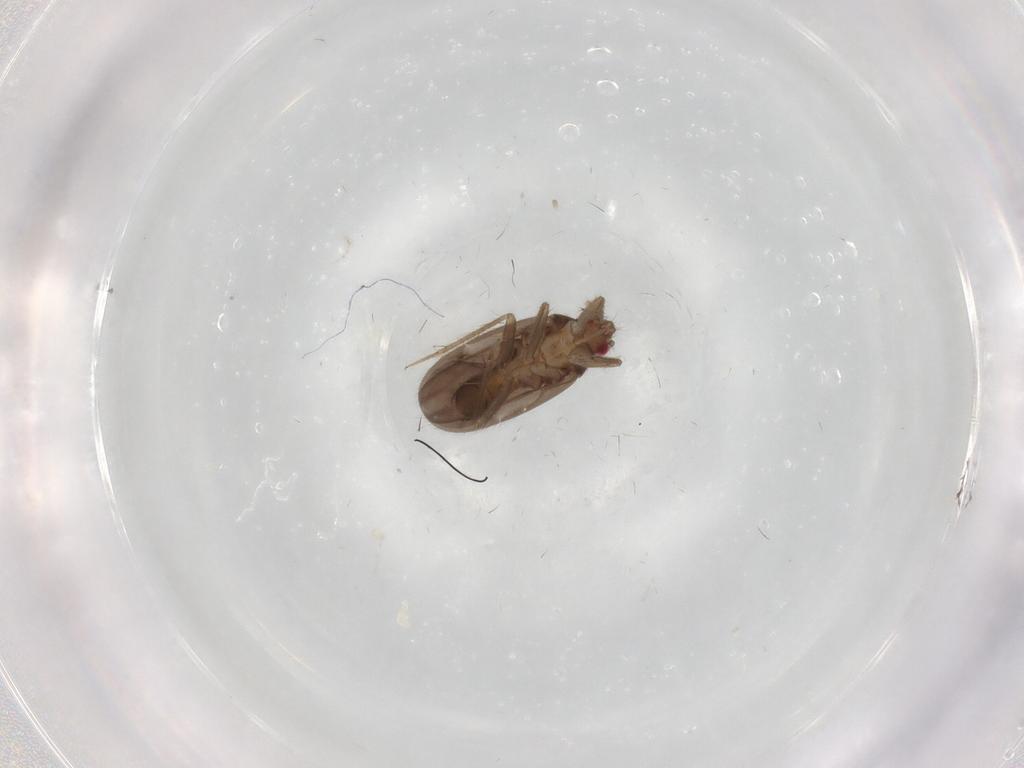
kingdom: Animalia
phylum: Arthropoda
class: Insecta
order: Hemiptera
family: Ceratocombidae
